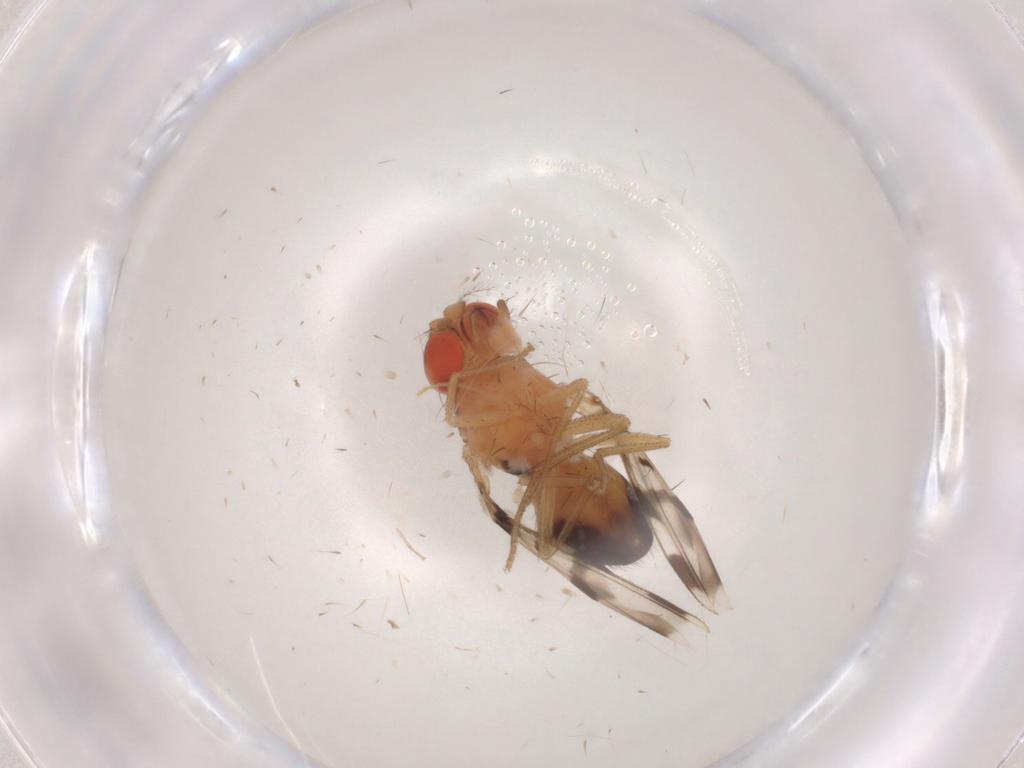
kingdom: Animalia
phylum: Arthropoda
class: Insecta
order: Diptera
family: Drosophilidae
